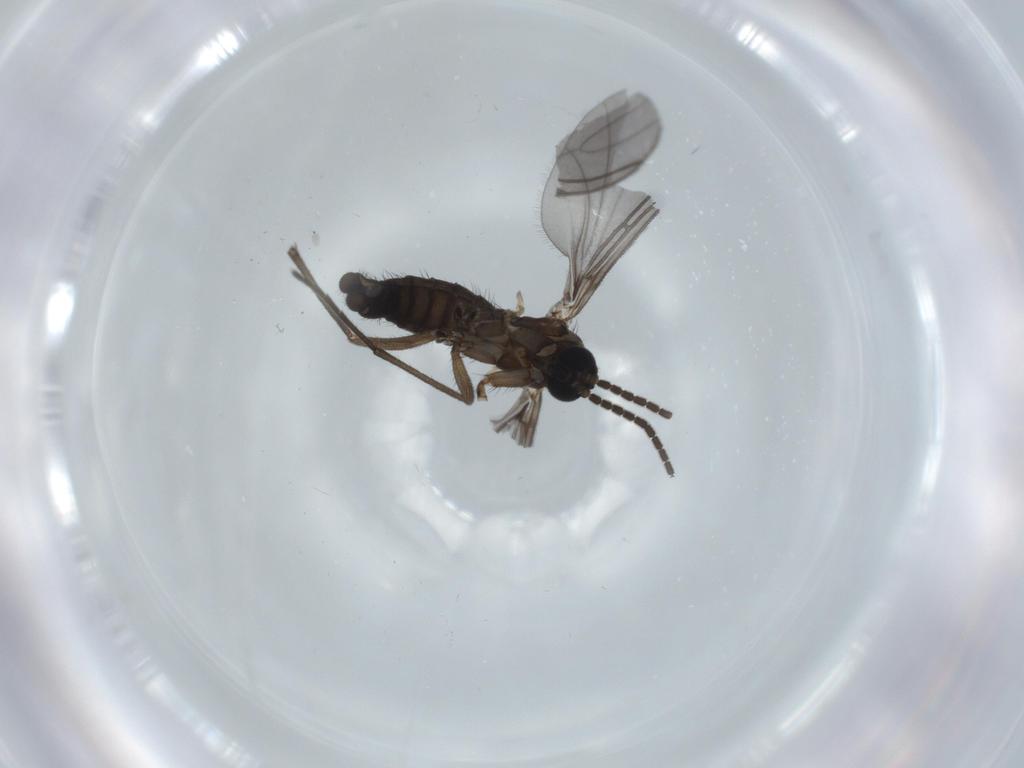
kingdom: Animalia
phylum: Arthropoda
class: Insecta
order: Diptera
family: Sciaridae
